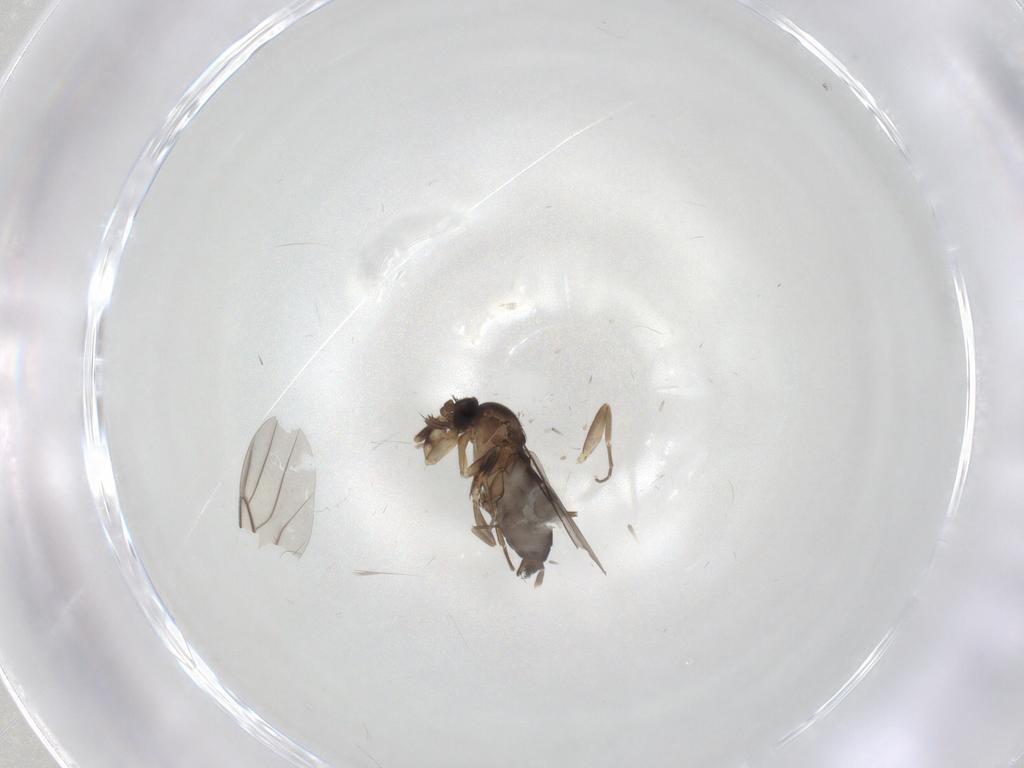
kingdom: Animalia
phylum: Arthropoda
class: Insecta
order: Diptera
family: Phoridae
